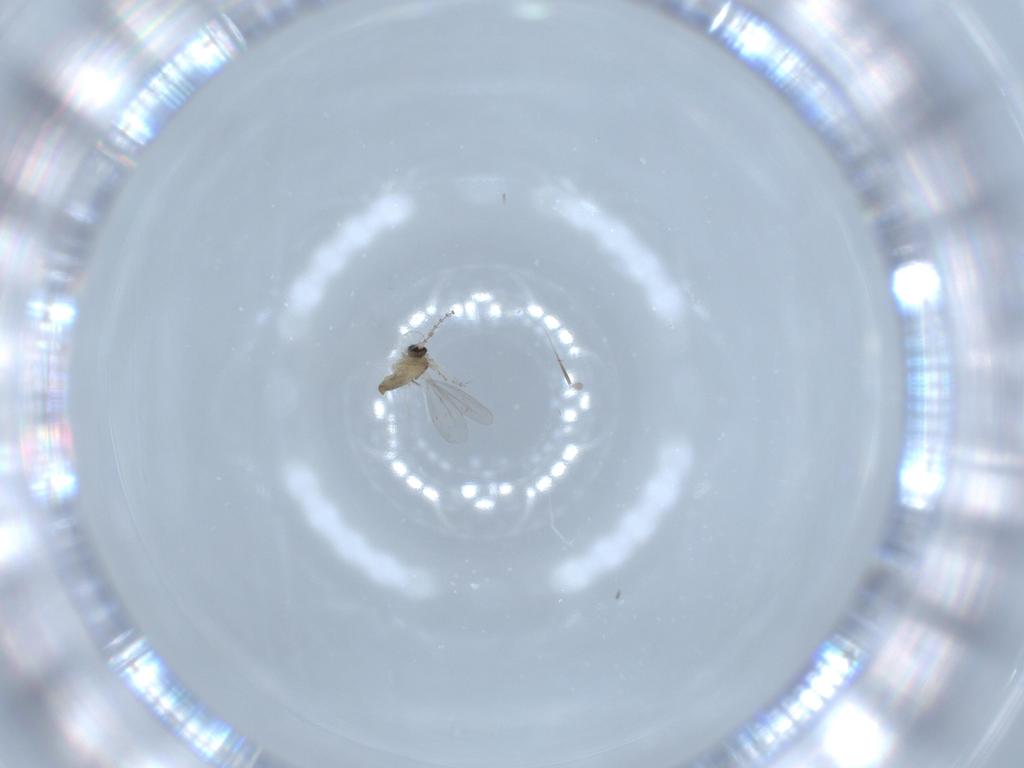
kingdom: Animalia
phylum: Arthropoda
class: Insecta
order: Diptera
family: Cecidomyiidae
